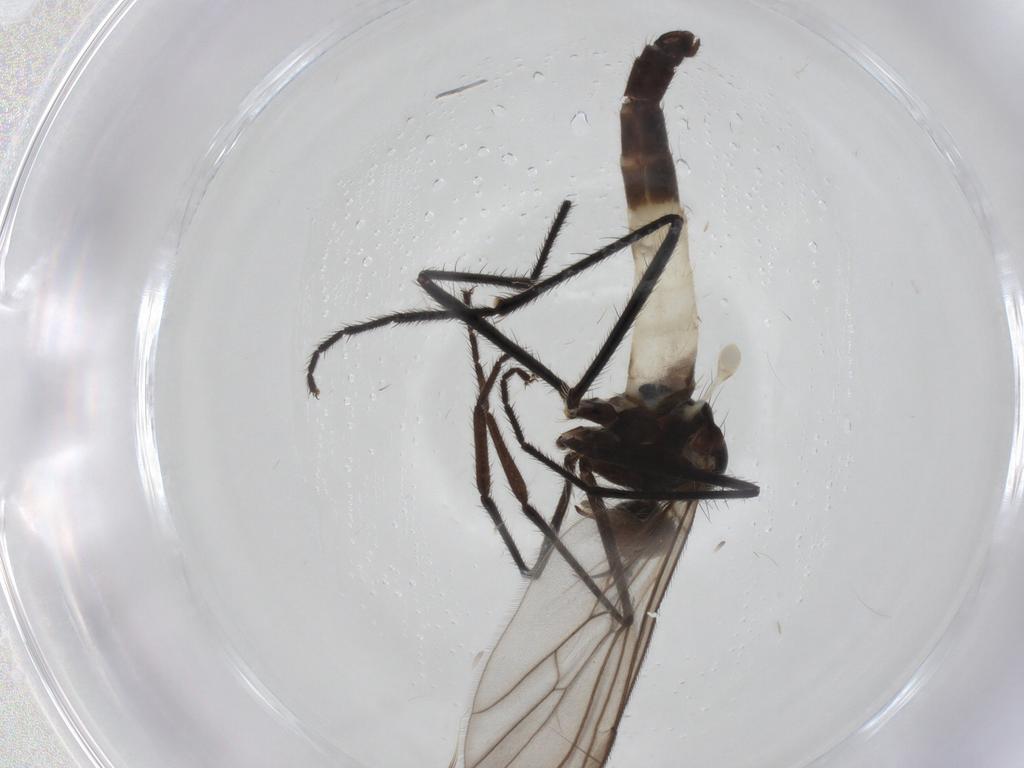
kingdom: Animalia
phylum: Arthropoda
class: Insecta
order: Diptera
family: Empididae
